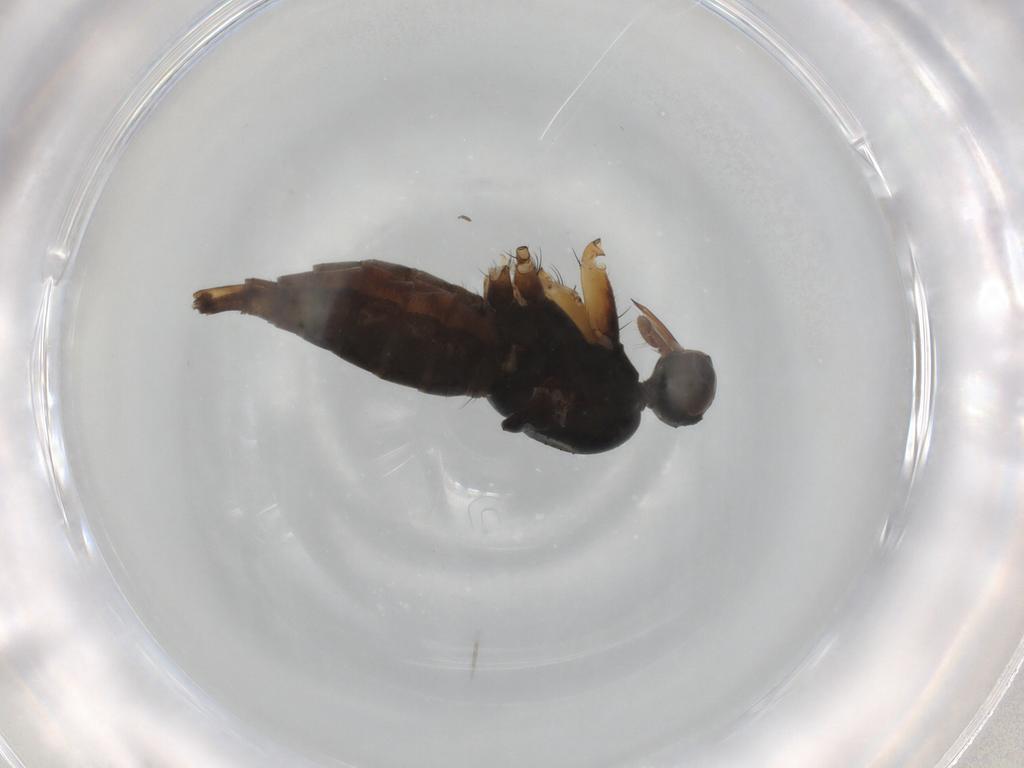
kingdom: Animalia
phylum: Arthropoda
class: Insecta
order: Diptera
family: Empididae
